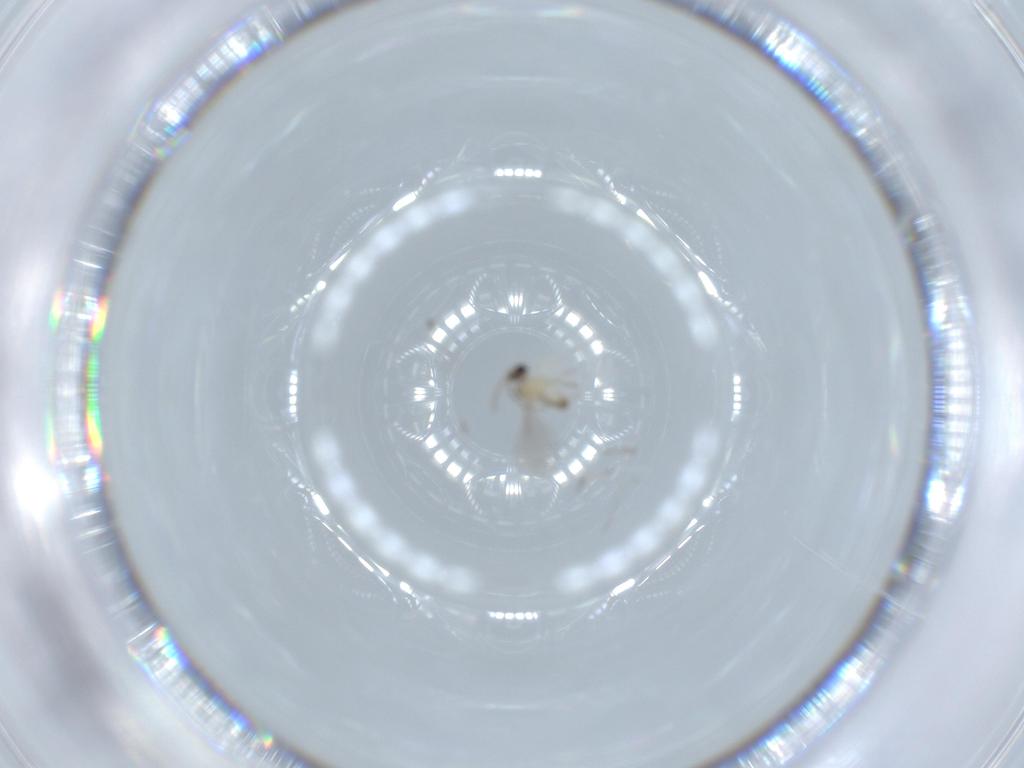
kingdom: Animalia
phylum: Arthropoda
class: Insecta
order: Diptera
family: Cecidomyiidae
